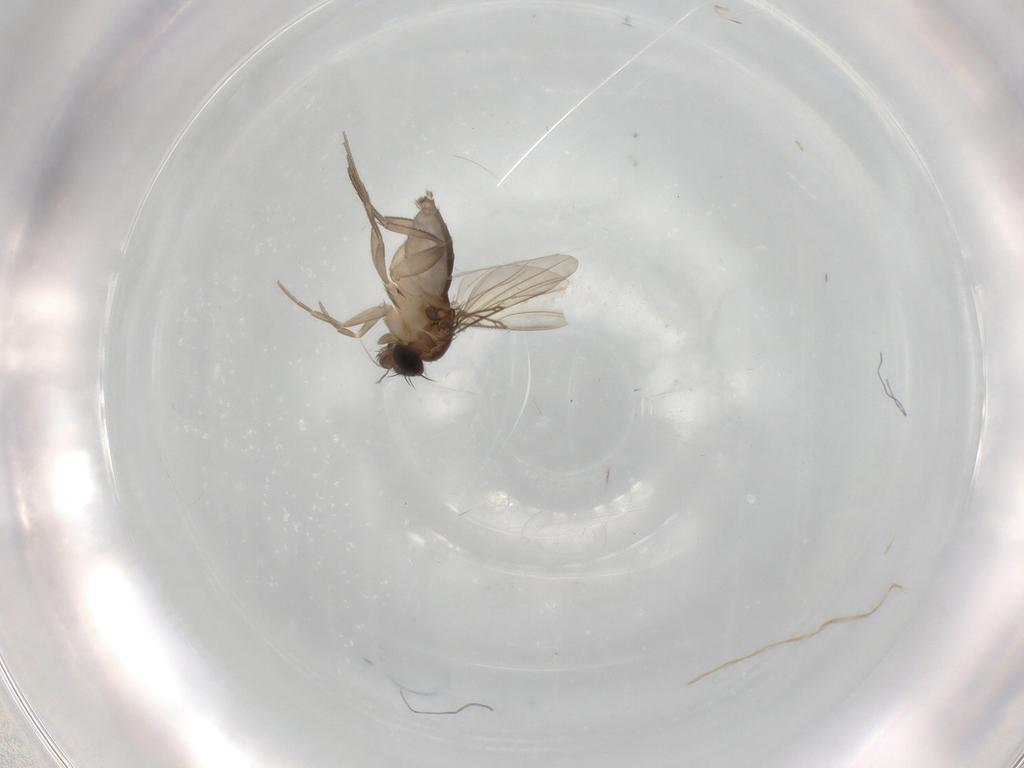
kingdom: Animalia
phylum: Arthropoda
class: Insecta
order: Diptera
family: Phoridae
